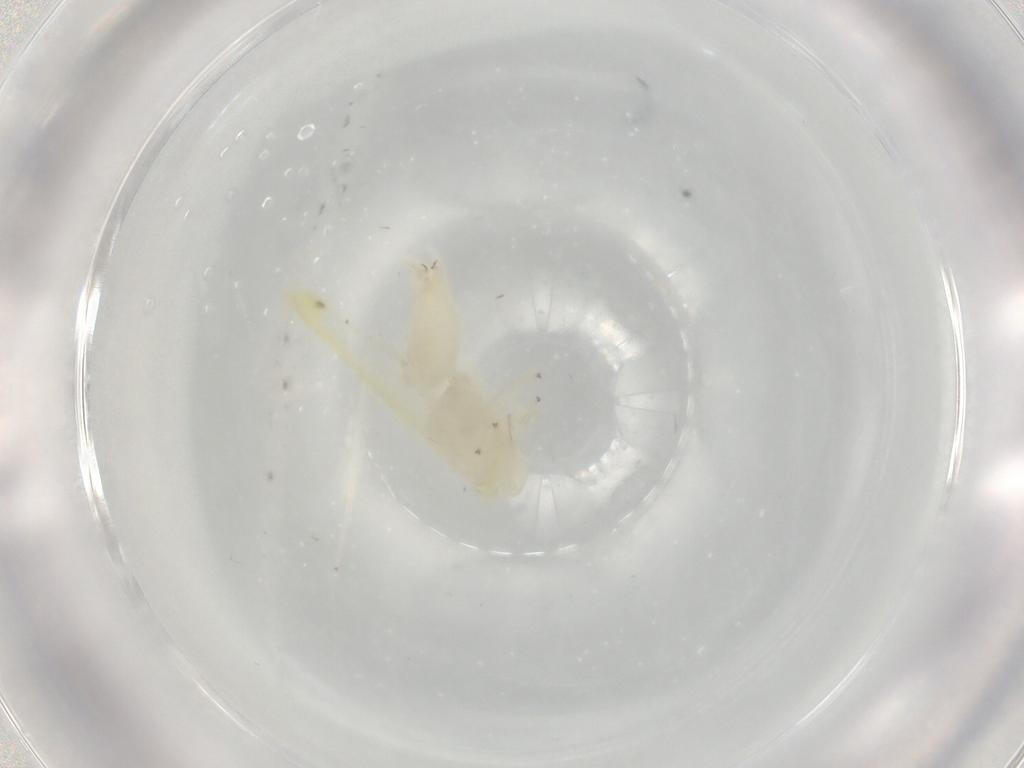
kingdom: Animalia
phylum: Arthropoda
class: Insecta
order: Hemiptera
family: Cicadellidae
